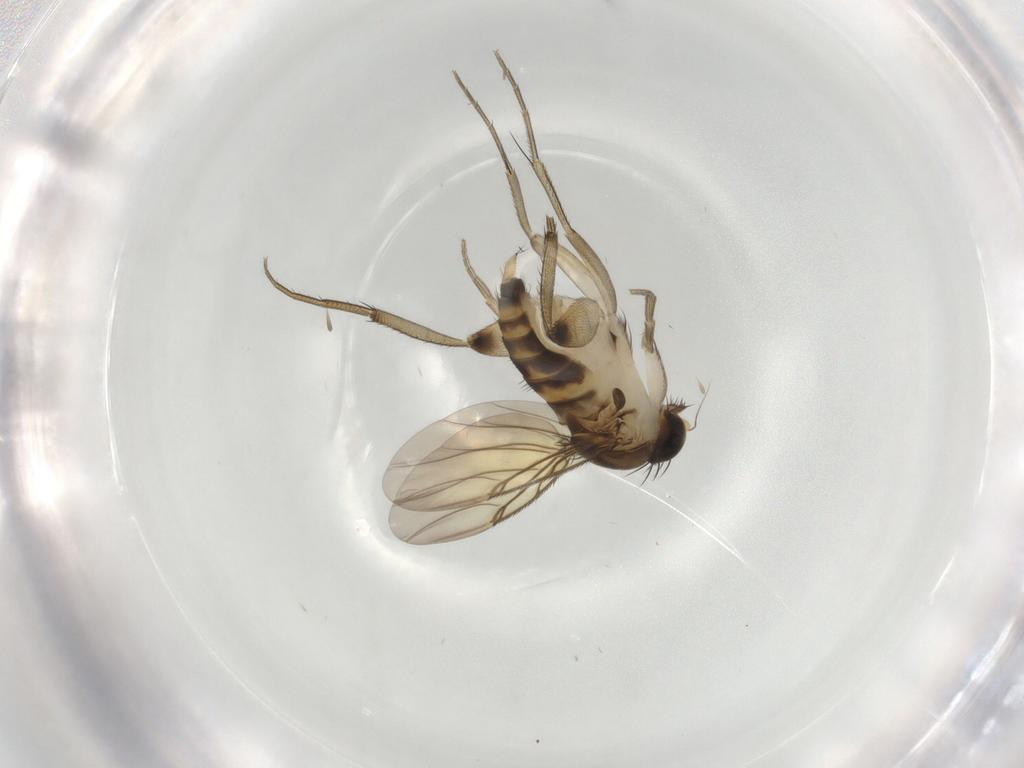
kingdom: Animalia
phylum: Arthropoda
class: Insecta
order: Diptera
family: Phoridae
